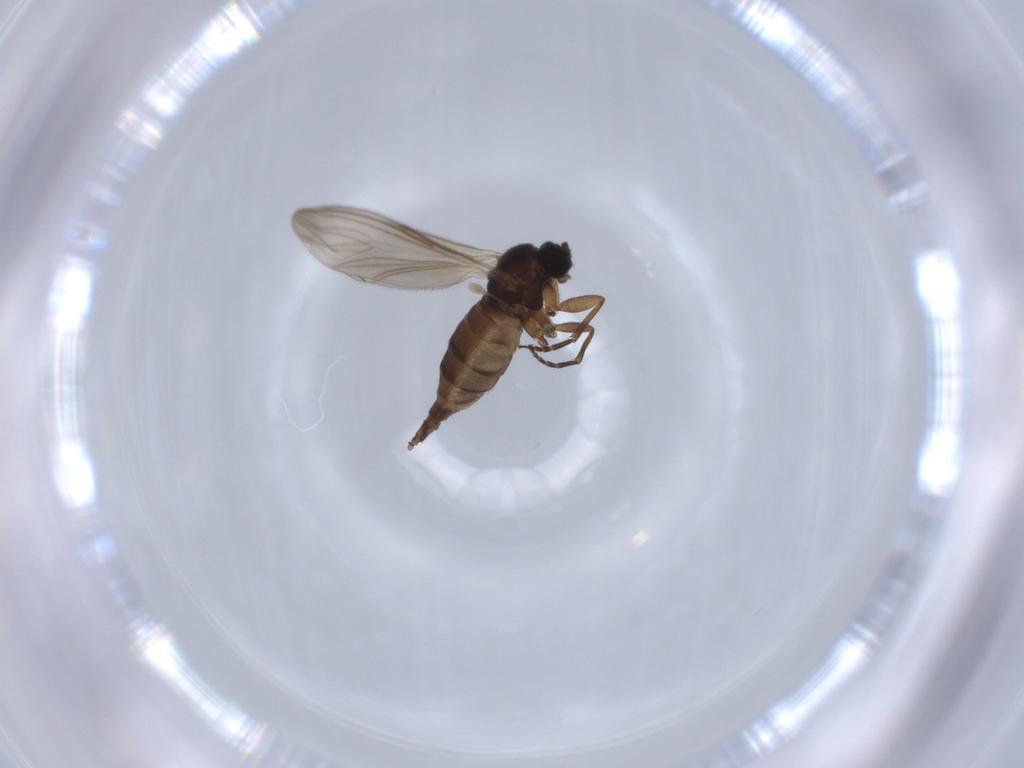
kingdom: Animalia
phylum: Arthropoda
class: Insecta
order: Diptera
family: Sciaridae
